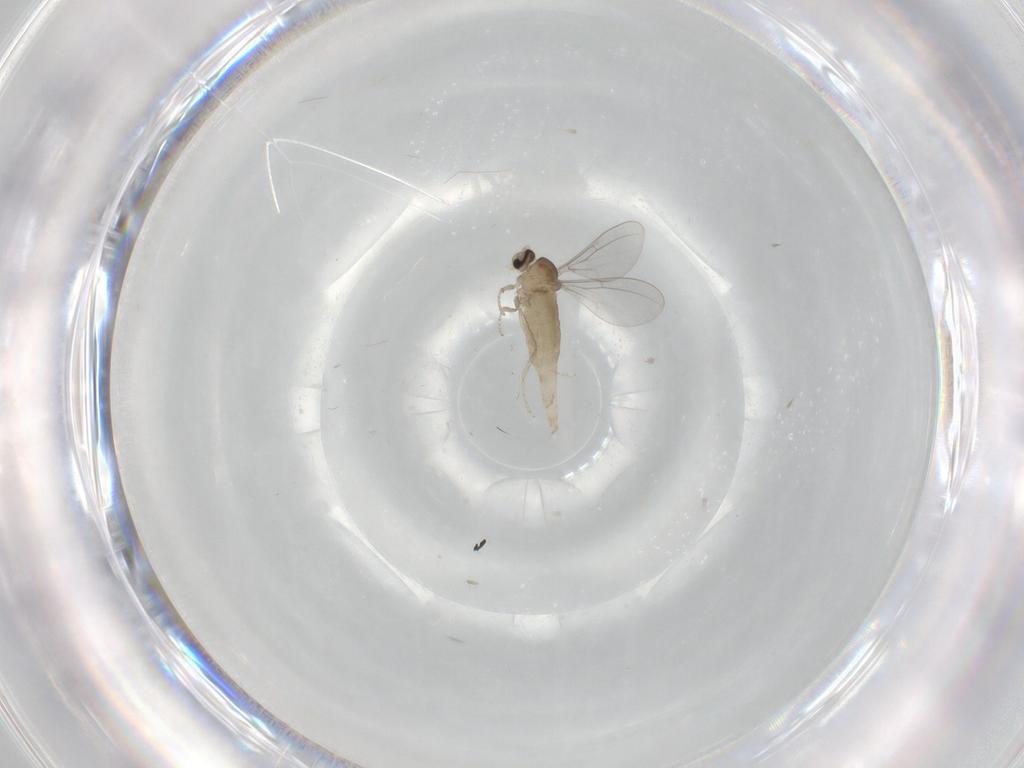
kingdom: Animalia
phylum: Arthropoda
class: Insecta
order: Diptera
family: Cecidomyiidae
